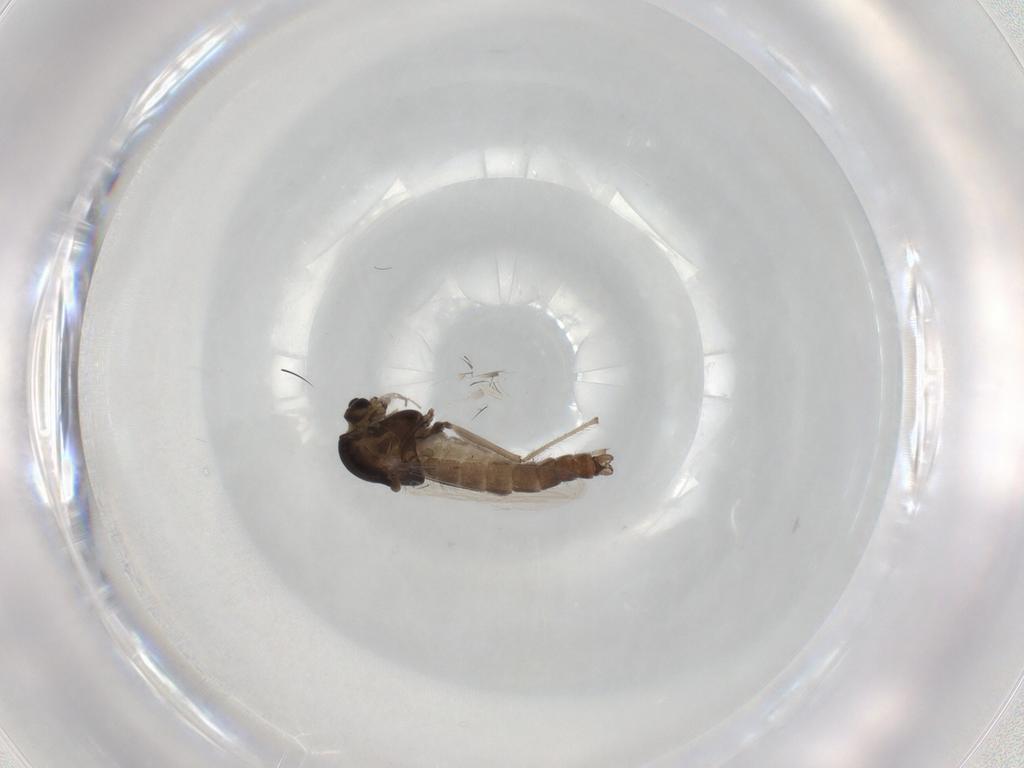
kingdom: Animalia
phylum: Arthropoda
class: Insecta
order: Diptera
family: Chironomidae
